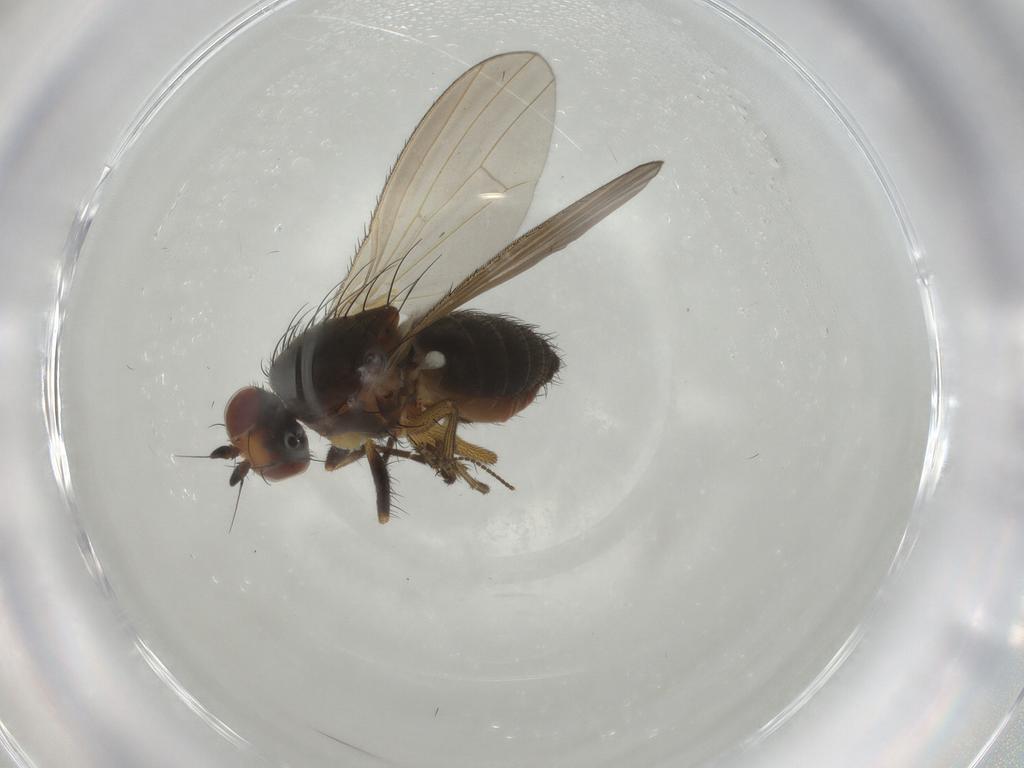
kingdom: Animalia
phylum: Arthropoda
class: Insecta
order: Diptera
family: Heleomyzidae
